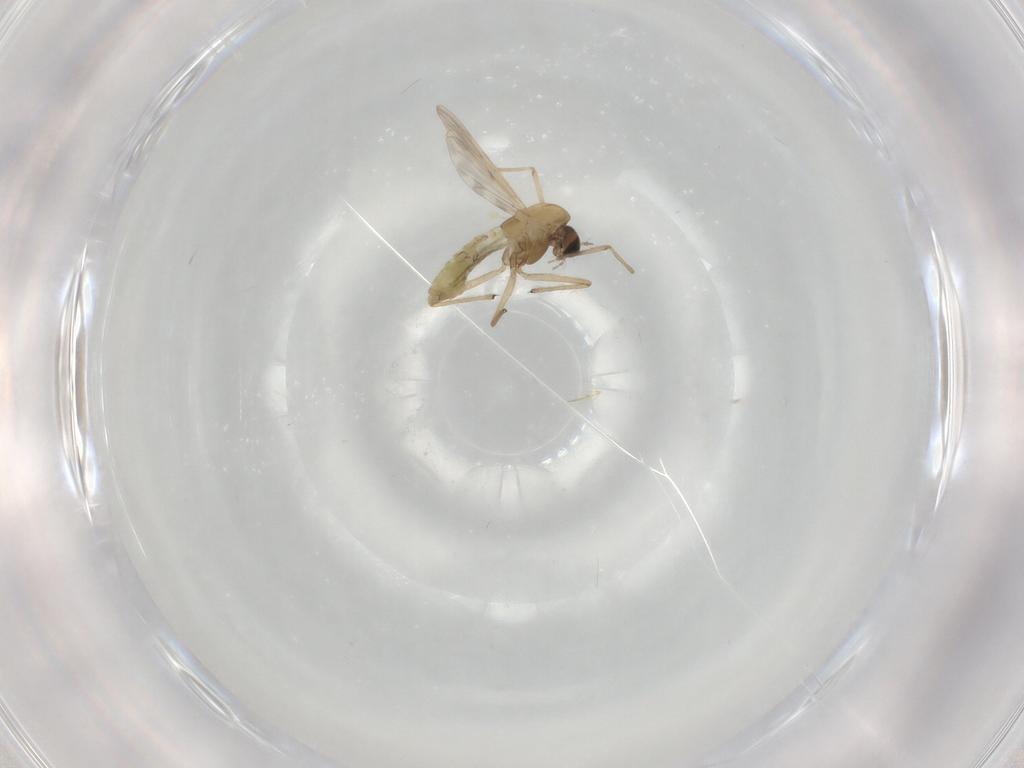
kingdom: Animalia
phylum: Arthropoda
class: Insecta
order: Diptera
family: Chironomidae
